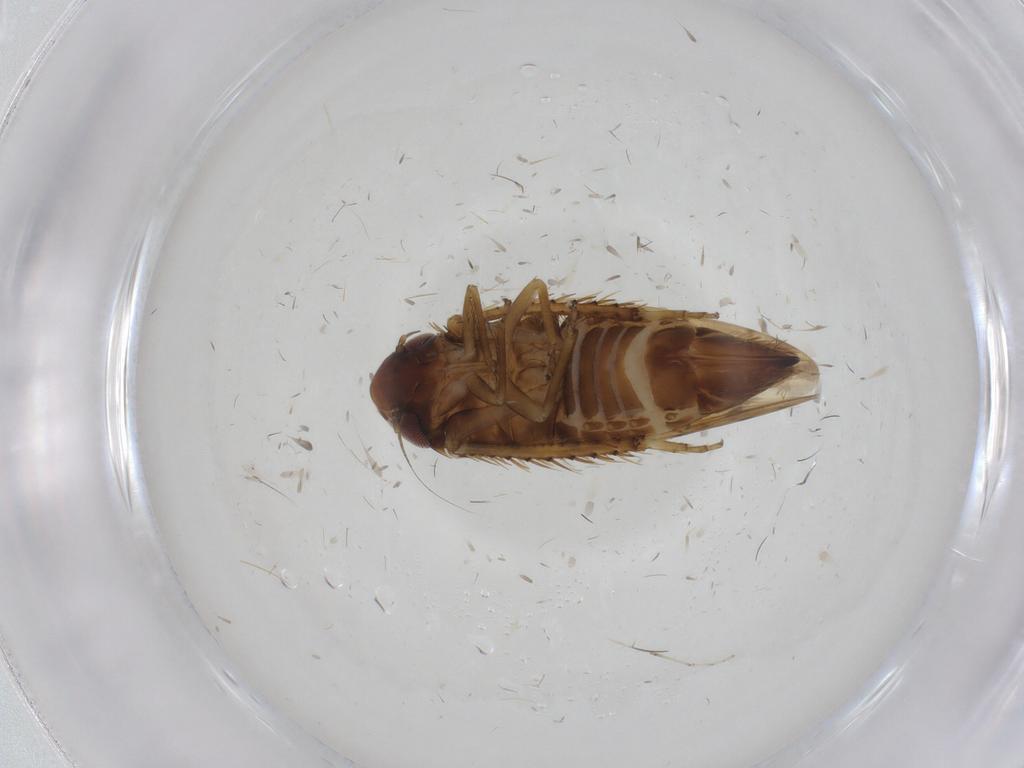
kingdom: Animalia
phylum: Arthropoda
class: Insecta
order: Hemiptera
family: Cicadellidae
